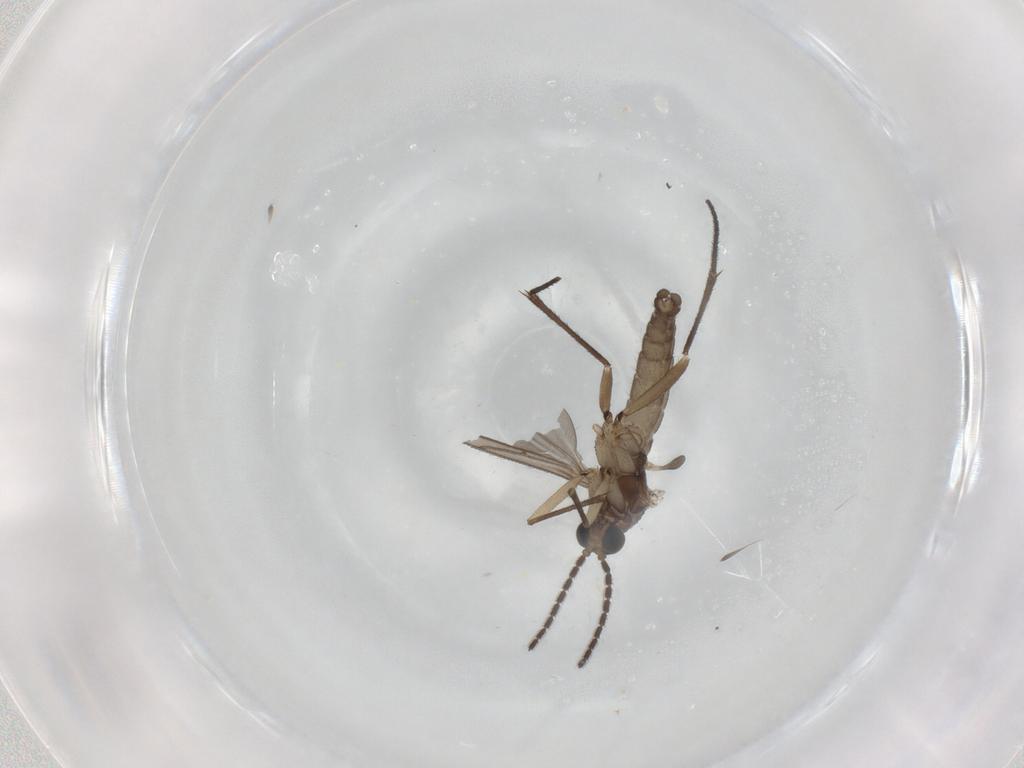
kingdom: Animalia
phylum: Arthropoda
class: Insecta
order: Diptera
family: Sciaridae
